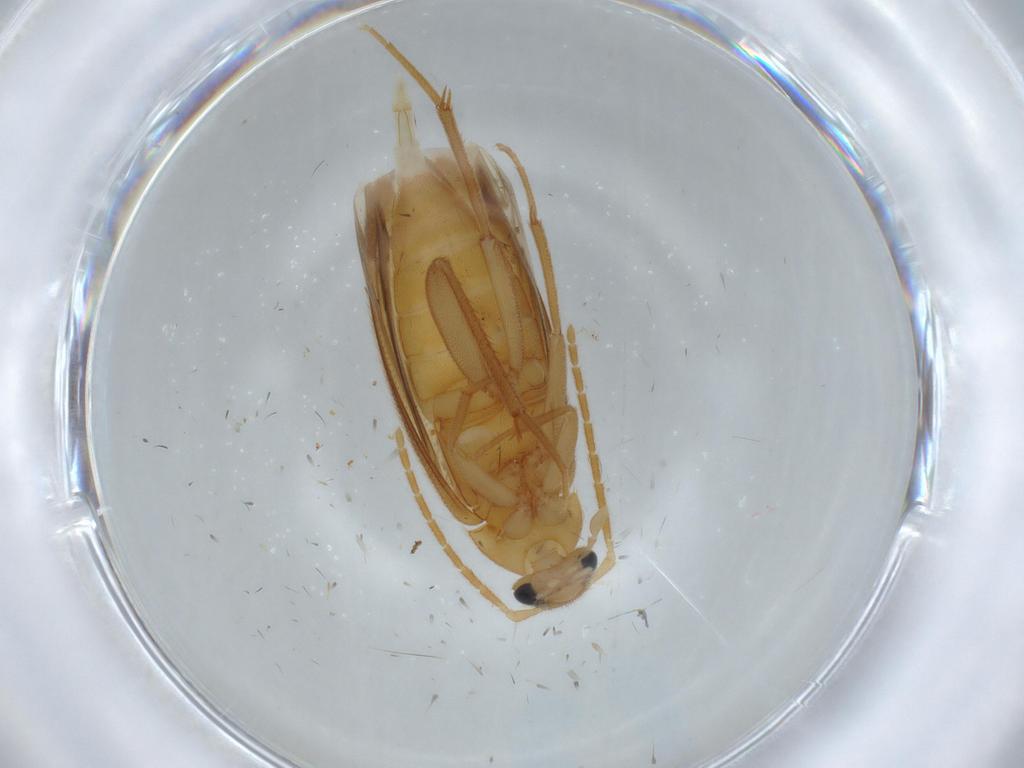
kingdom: Animalia
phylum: Arthropoda
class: Insecta
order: Coleoptera
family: Scraptiidae
